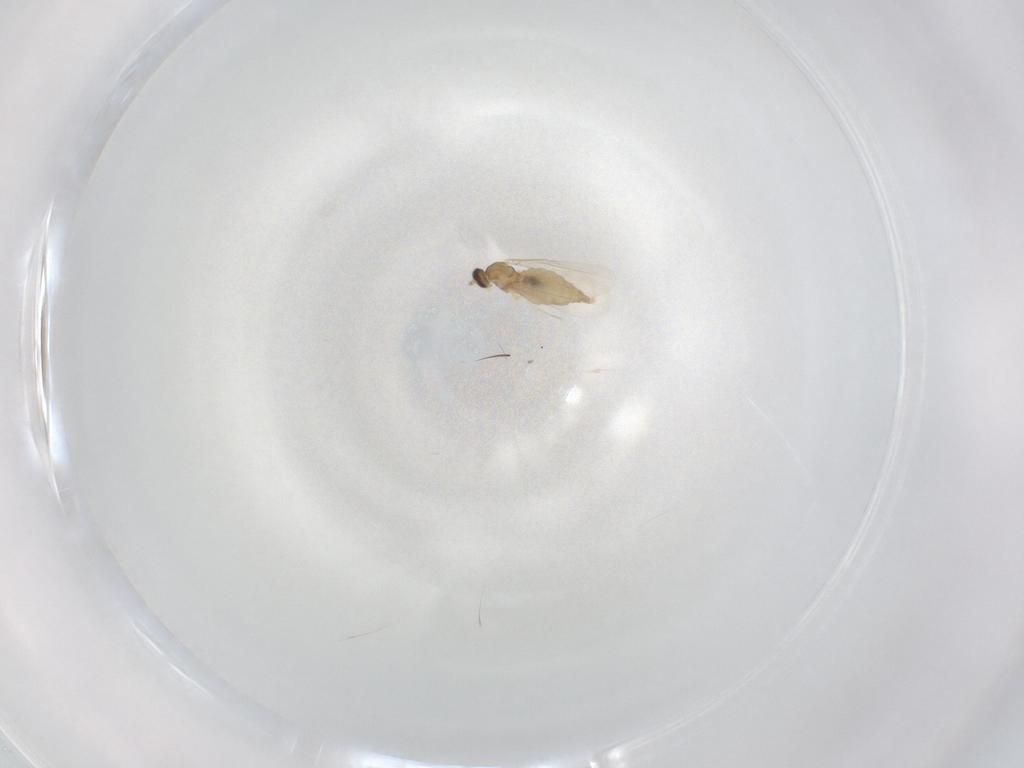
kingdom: Animalia
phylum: Arthropoda
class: Insecta
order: Diptera
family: Cecidomyiidae
